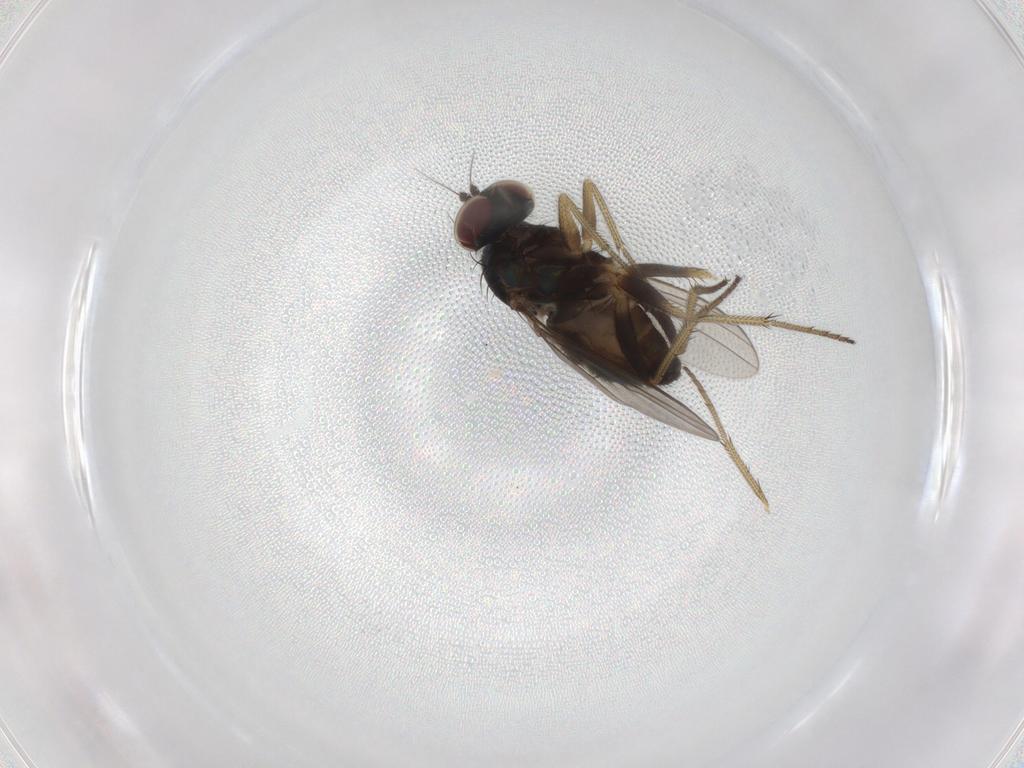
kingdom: Animalia
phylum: Arthropoda
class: Insecta
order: Diptera
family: Dolichopodidae
